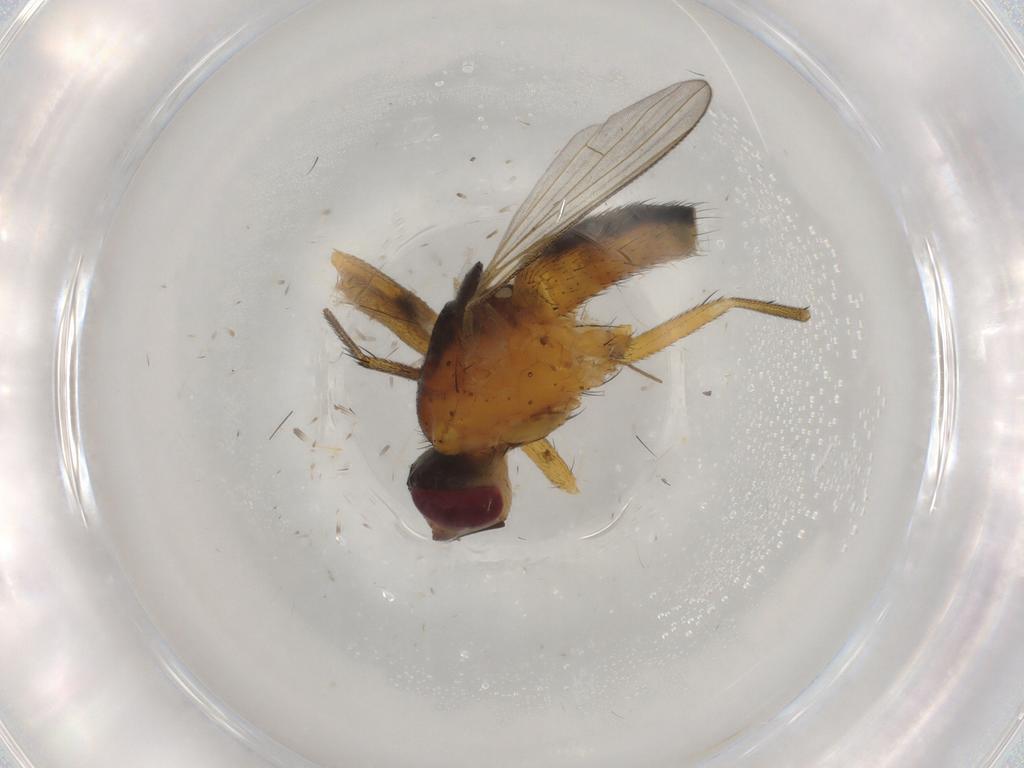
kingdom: Animalia
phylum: Arthropoda
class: Insecta
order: Diptera
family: Muscidae
